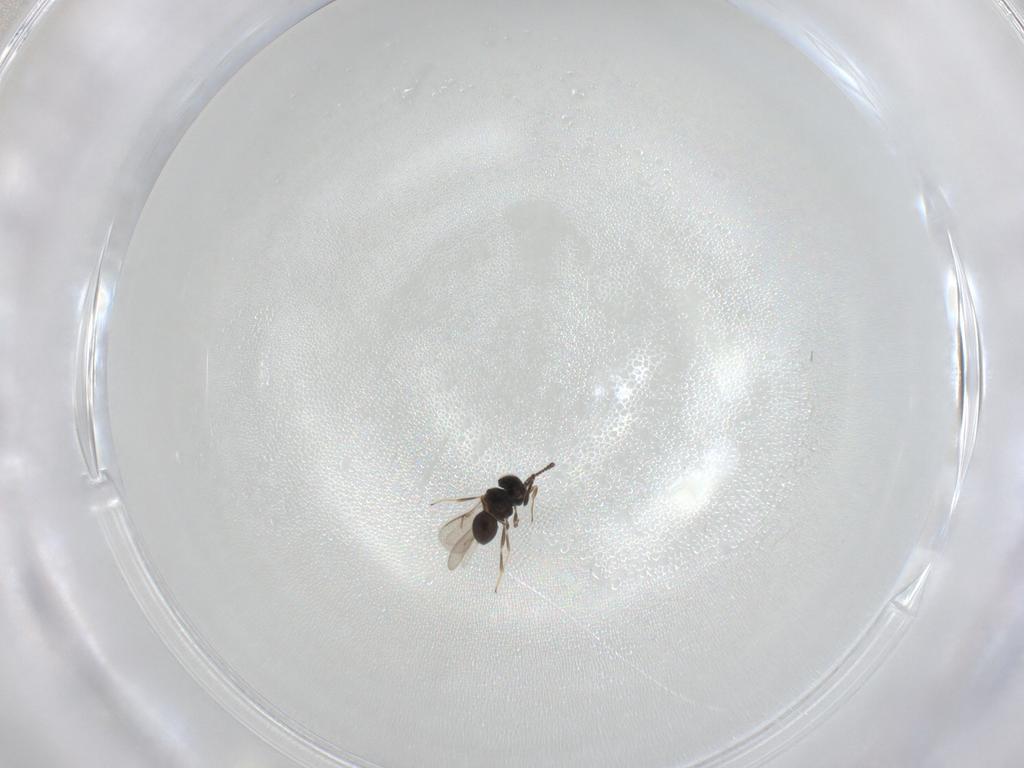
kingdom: Animalia
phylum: Arthropoda
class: Insecta
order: Hymenoptera
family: Scelionidae
